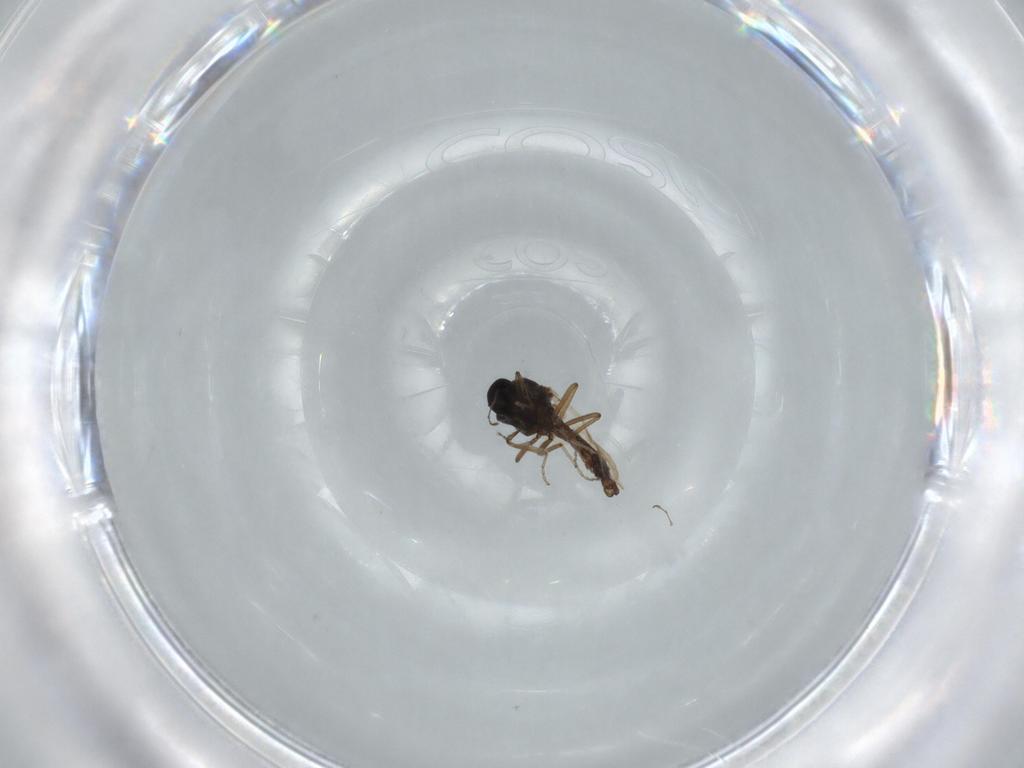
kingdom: Animalia
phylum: Arthropoda
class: Insecta
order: Diptera
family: Ceratopogonidae
